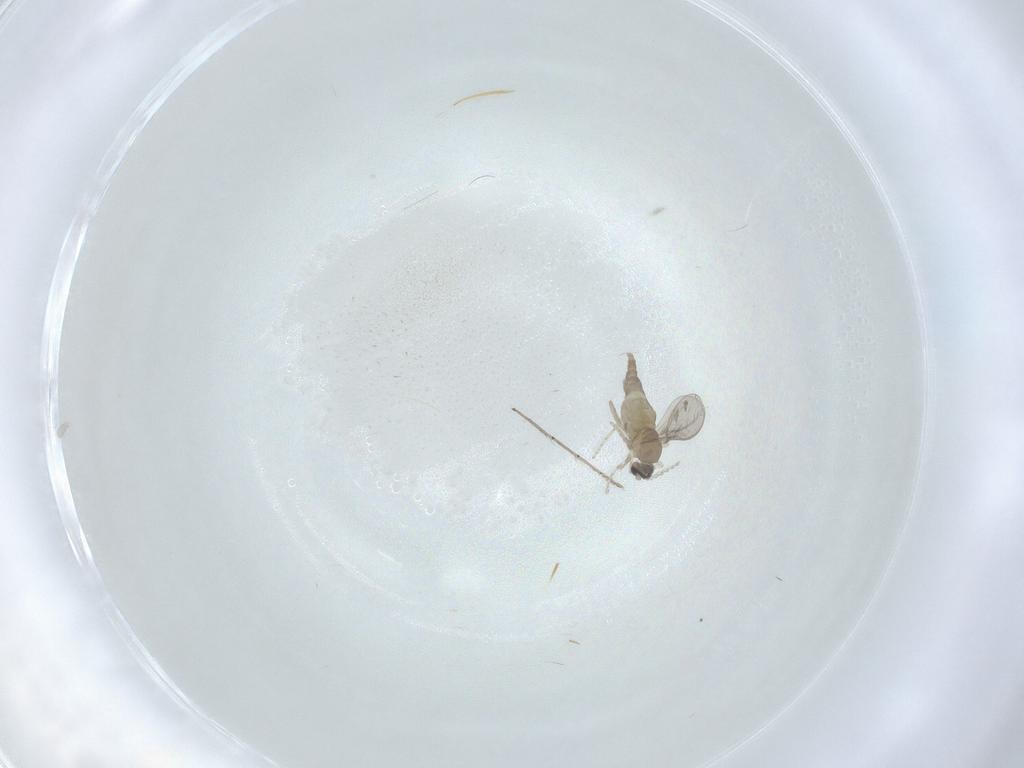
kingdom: Animalia
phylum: Arthropoda
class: Insecta
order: Diptera
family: Cecidomyiidae
